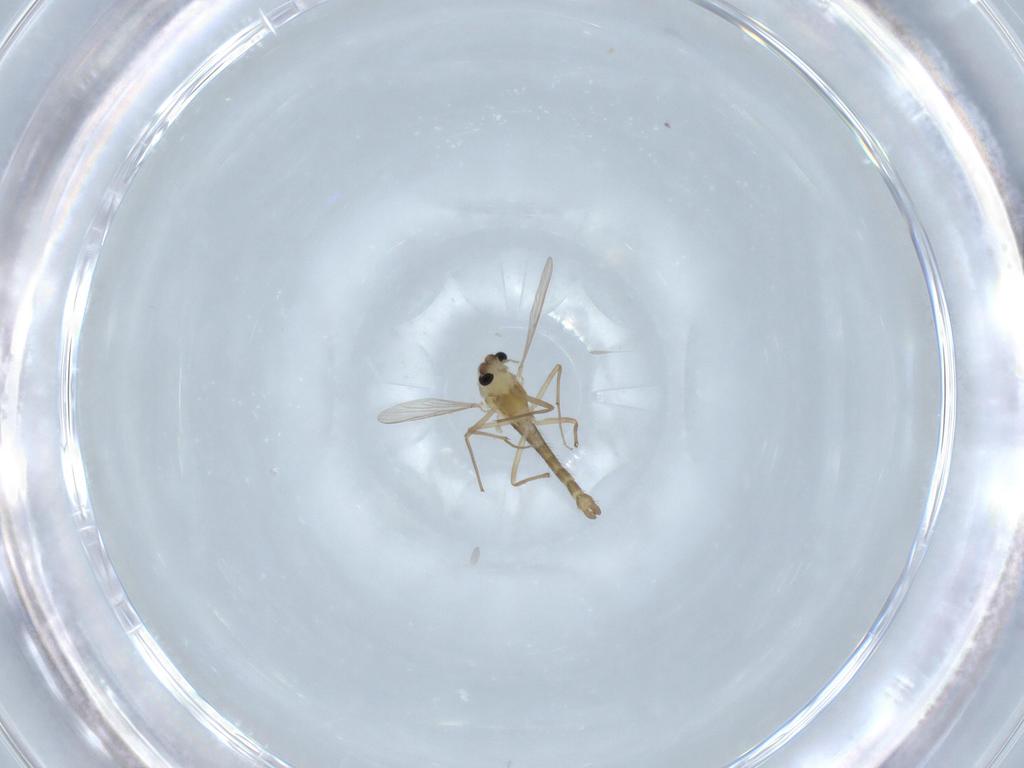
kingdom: Animalia
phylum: Arthropoda
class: Insecta
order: Diptera
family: Chironomidae
